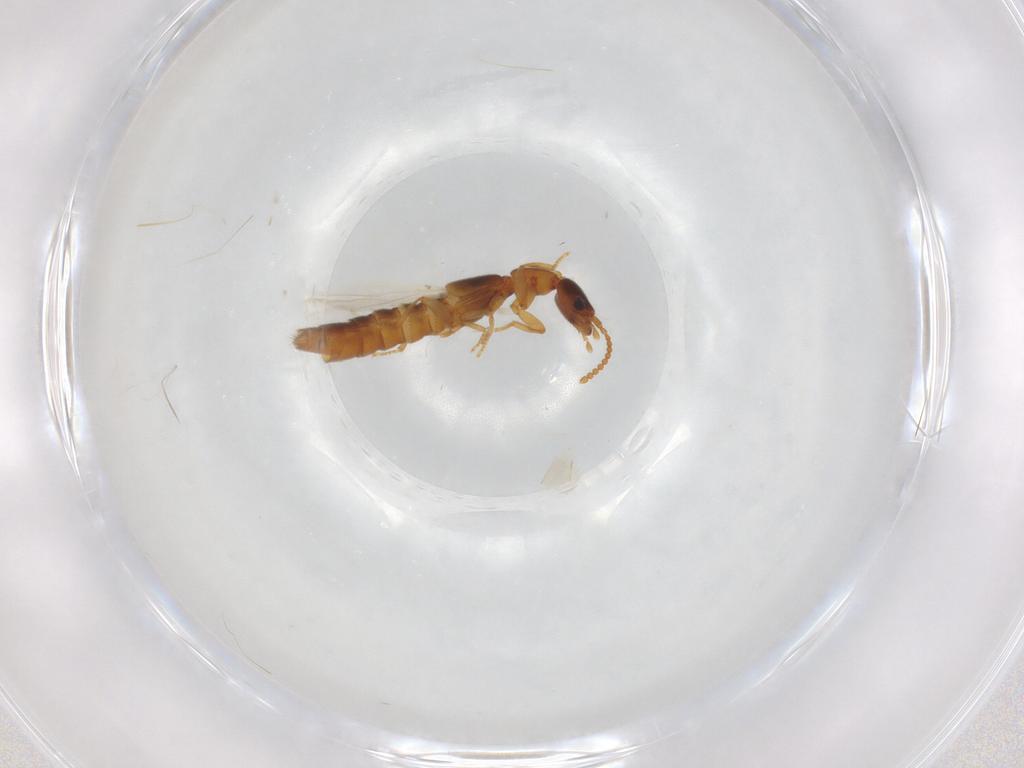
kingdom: Animalia
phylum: Arthropoda
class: Insecta
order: Coleoptera
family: Staphylinidae
